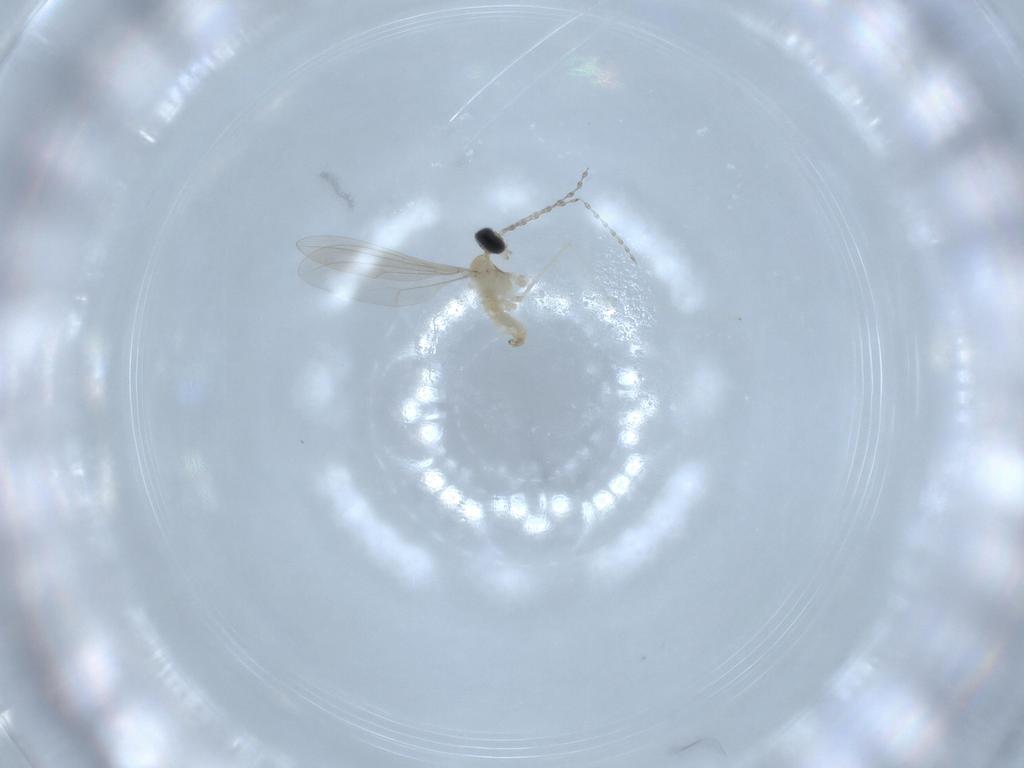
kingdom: Animalia
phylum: Arthropoda
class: Insecta
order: Diptera
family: Cecidomyiidae
